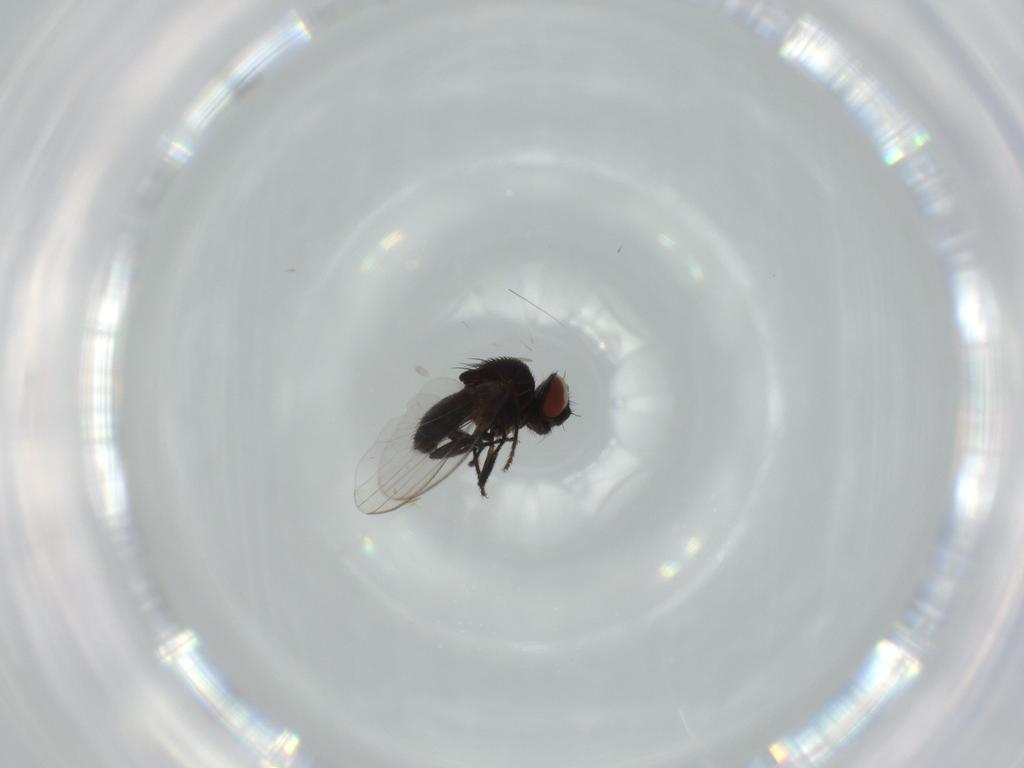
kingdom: Animalia
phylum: Arthropoda
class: Insecta
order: Diptera
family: Milichiidae
